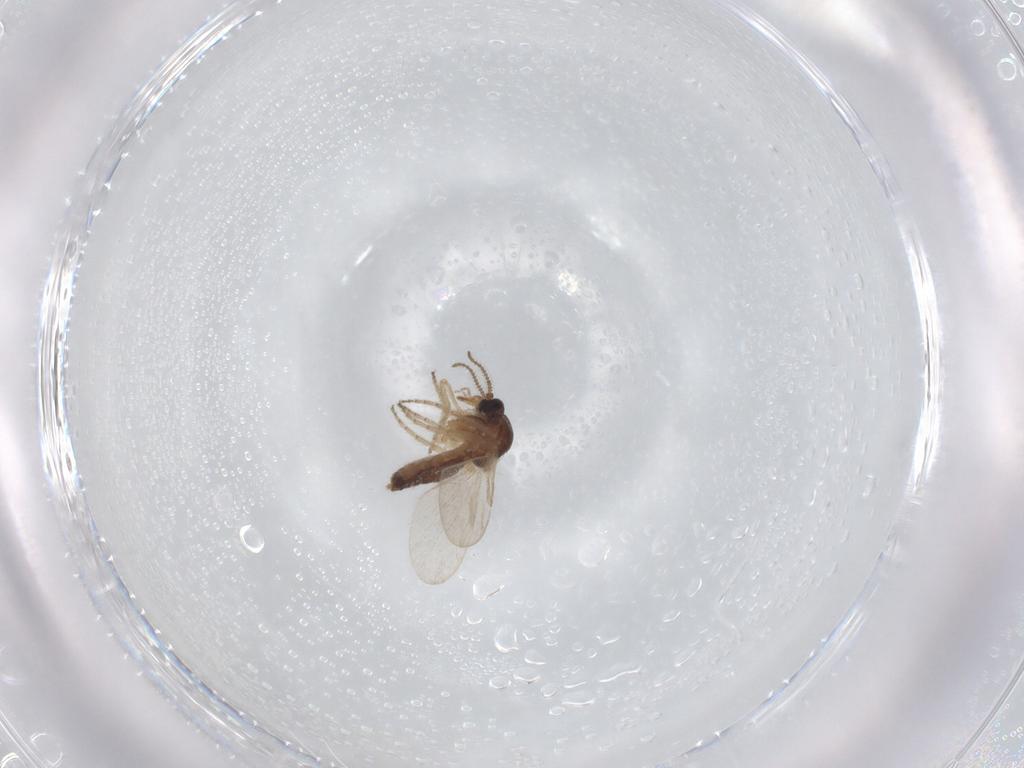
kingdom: Animalia
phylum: Arthropoda
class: Insecta
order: Diptera
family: Ceratopogonidae
